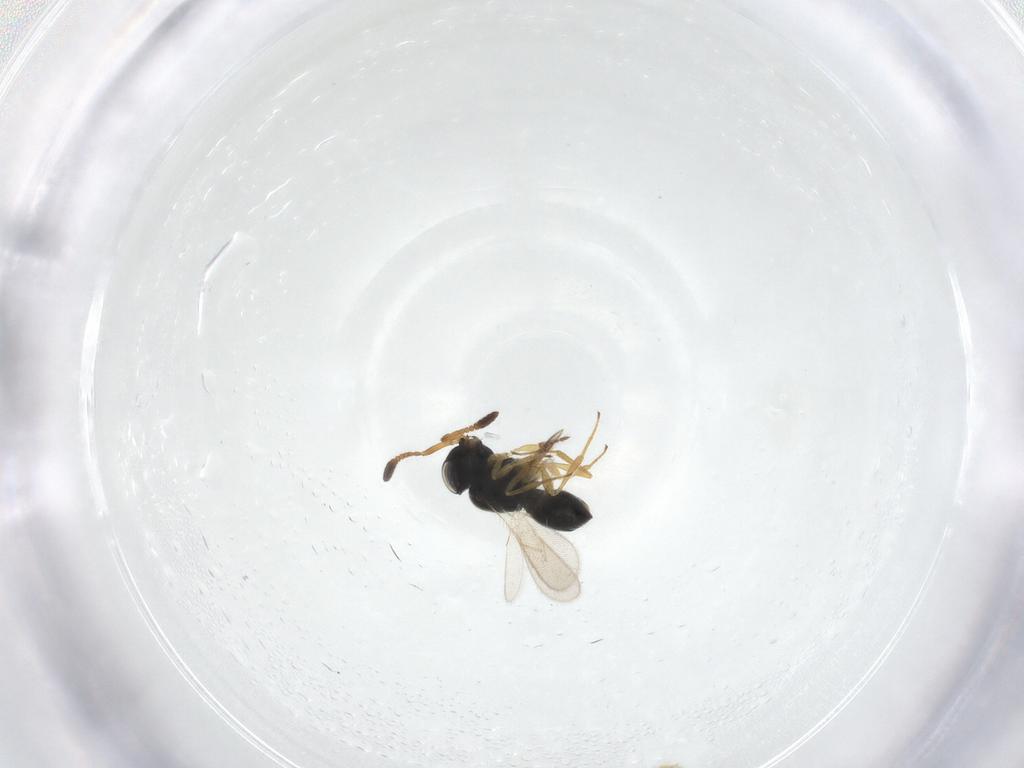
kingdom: Animalia
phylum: Arthropoda
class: Insecta
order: Hymenoptera
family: Scelionidae
